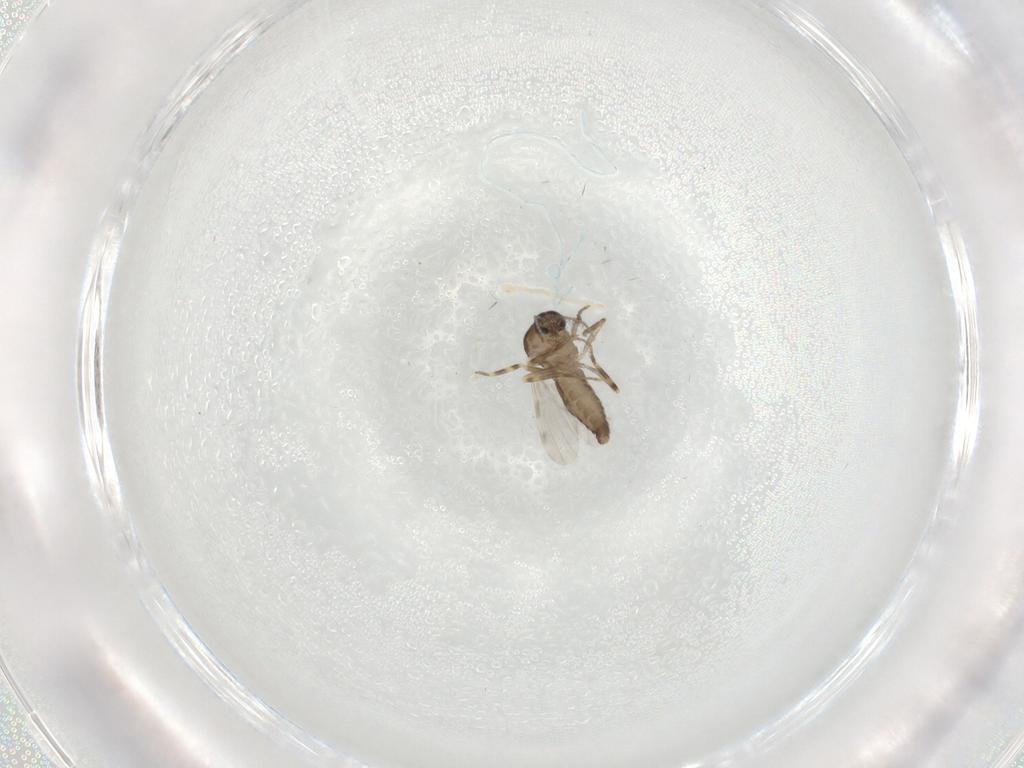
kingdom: Animalia
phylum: Arthropoda
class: Insecta
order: Diptera
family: Ceratopogonidae
